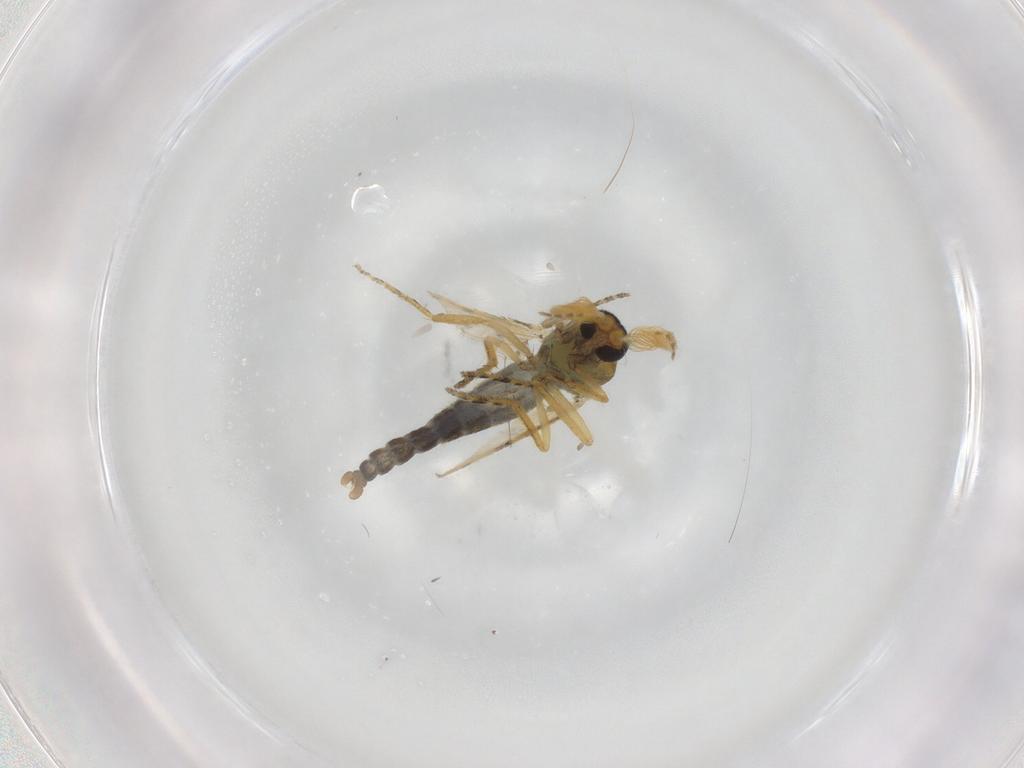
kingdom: Animalia
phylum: Arthropoda
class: Insecta
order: Diptera
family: Ceratopogonidae
